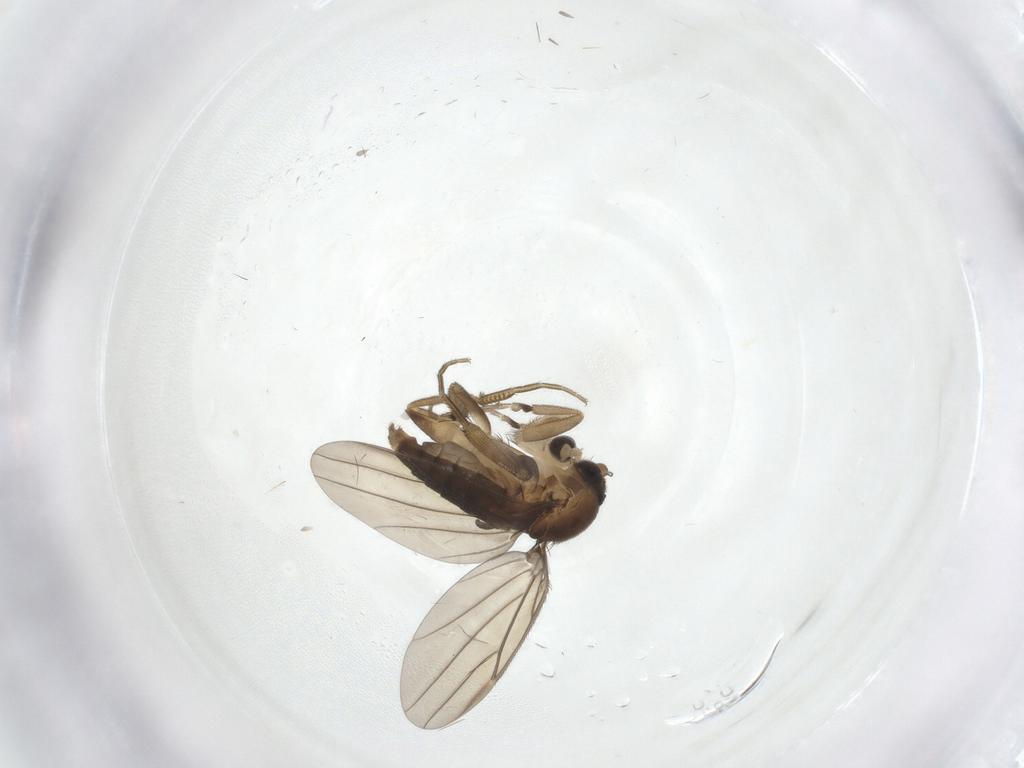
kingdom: Animalia
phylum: Arthropoda
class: Insecta
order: Diptera
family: Cecidomyiidae
